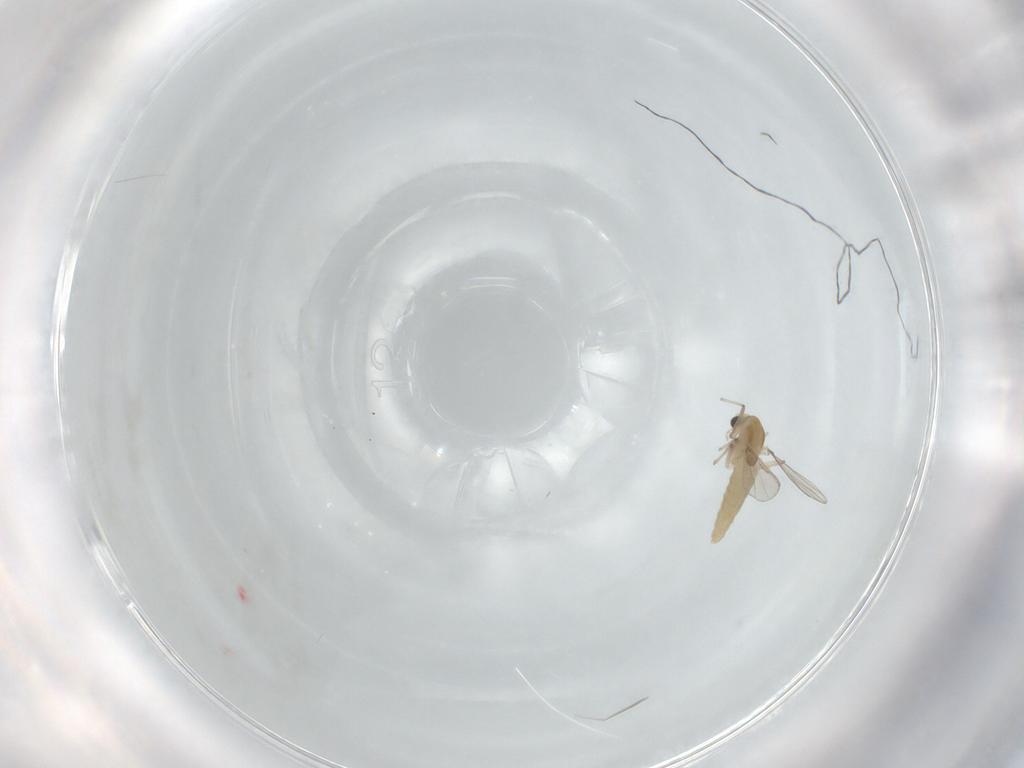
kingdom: Animalia
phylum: Arthropoda
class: Insecta
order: Diptera
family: Chironomidae
